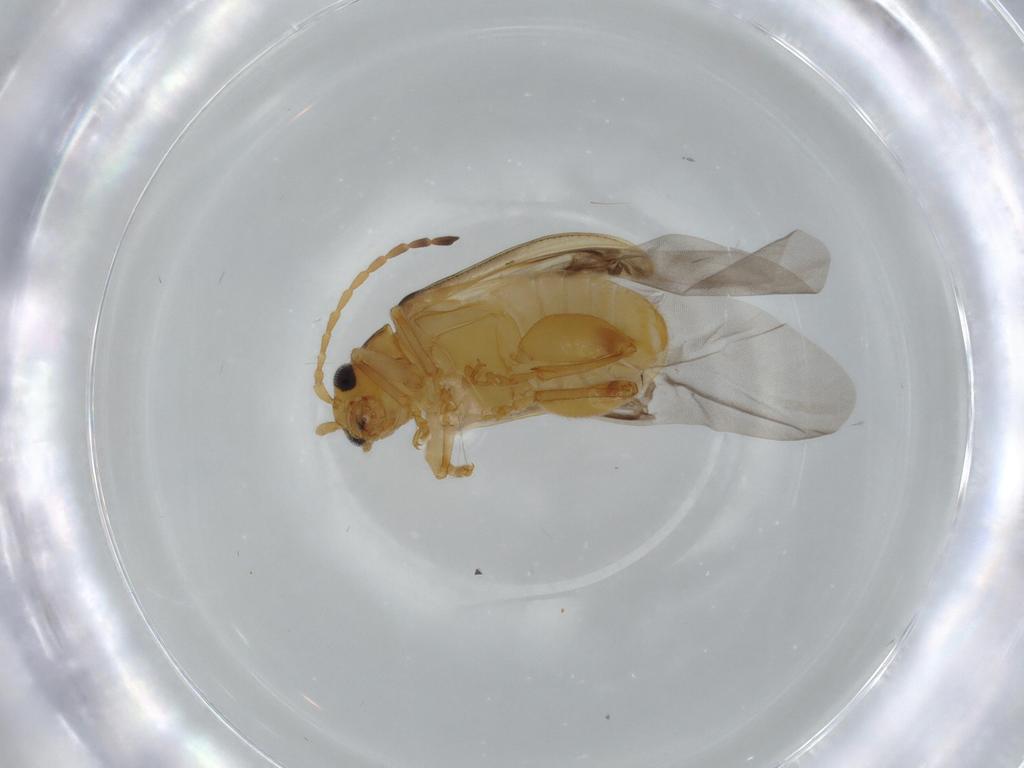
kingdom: Animalia
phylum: Arthropoda
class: Insecta
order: Coleoptera
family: Chrysomelidae
